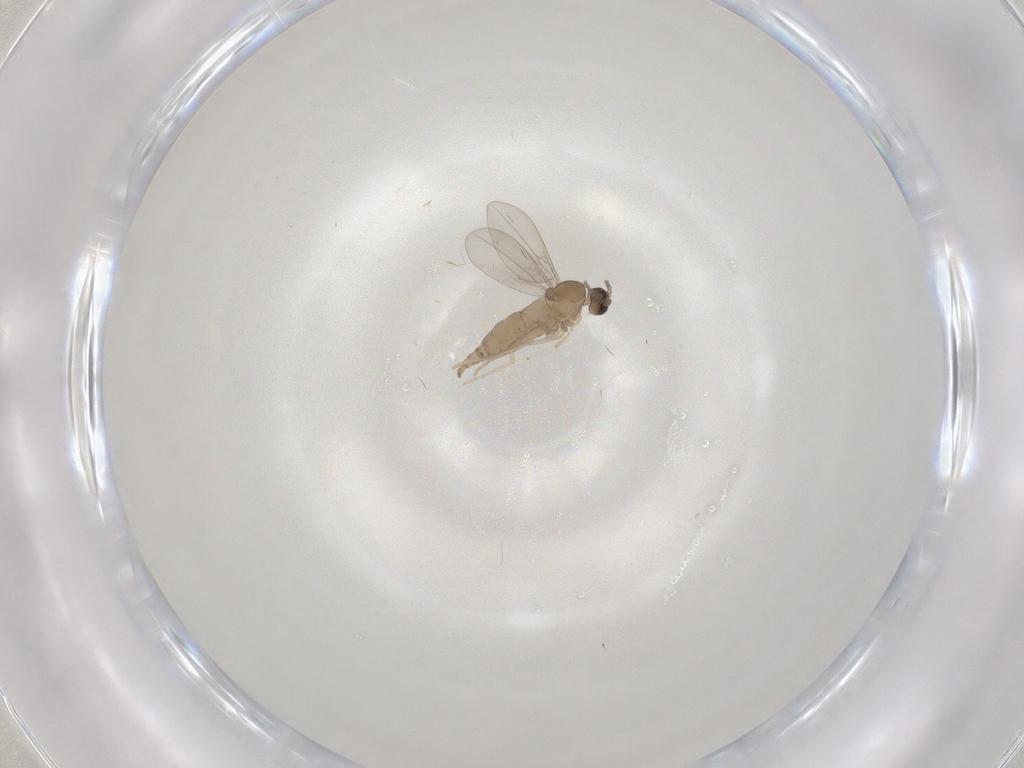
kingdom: Animalia
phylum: Arthropoda
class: Insecta
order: Diptera
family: Cecidomyiidae
